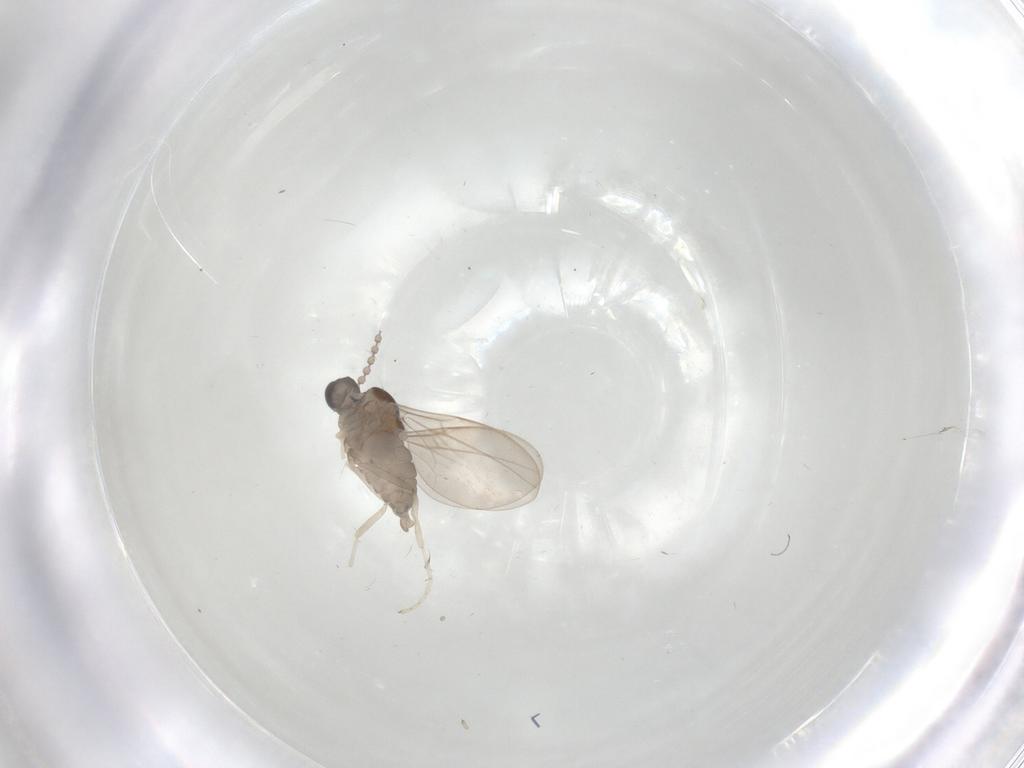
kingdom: Animalia
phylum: Arthropoda
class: Insecta
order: Diptera
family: Cecidomyiidae
